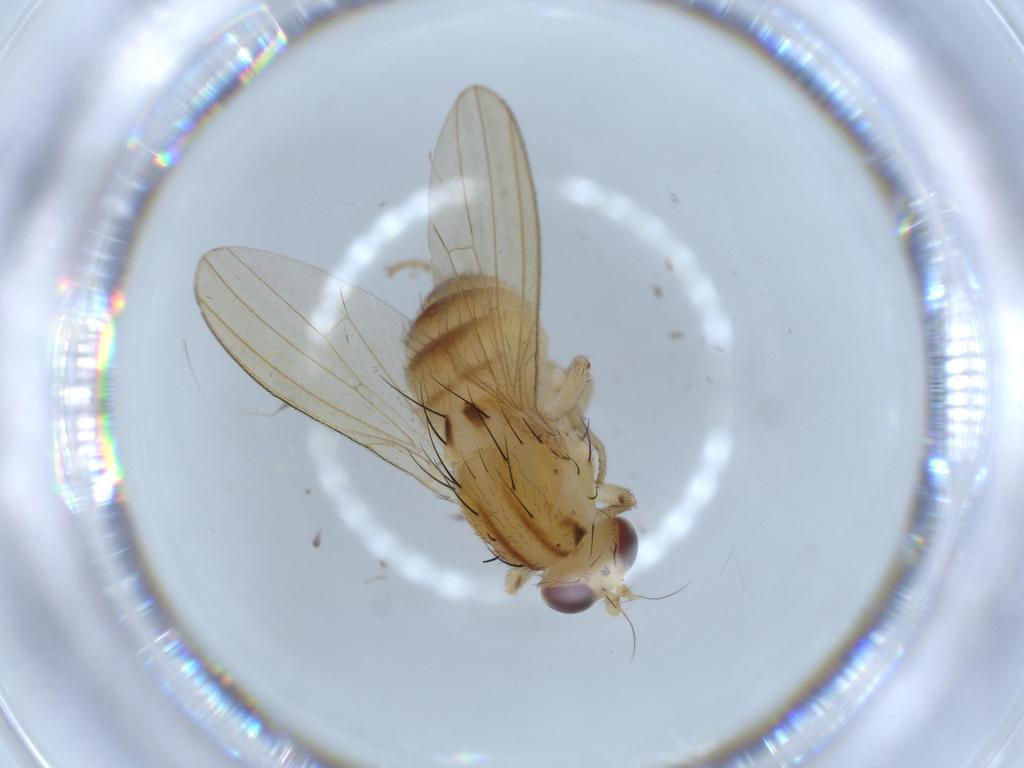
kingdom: Animalia
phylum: Arthropoda
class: Insecta
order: Diptera
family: Lauxaniidae
